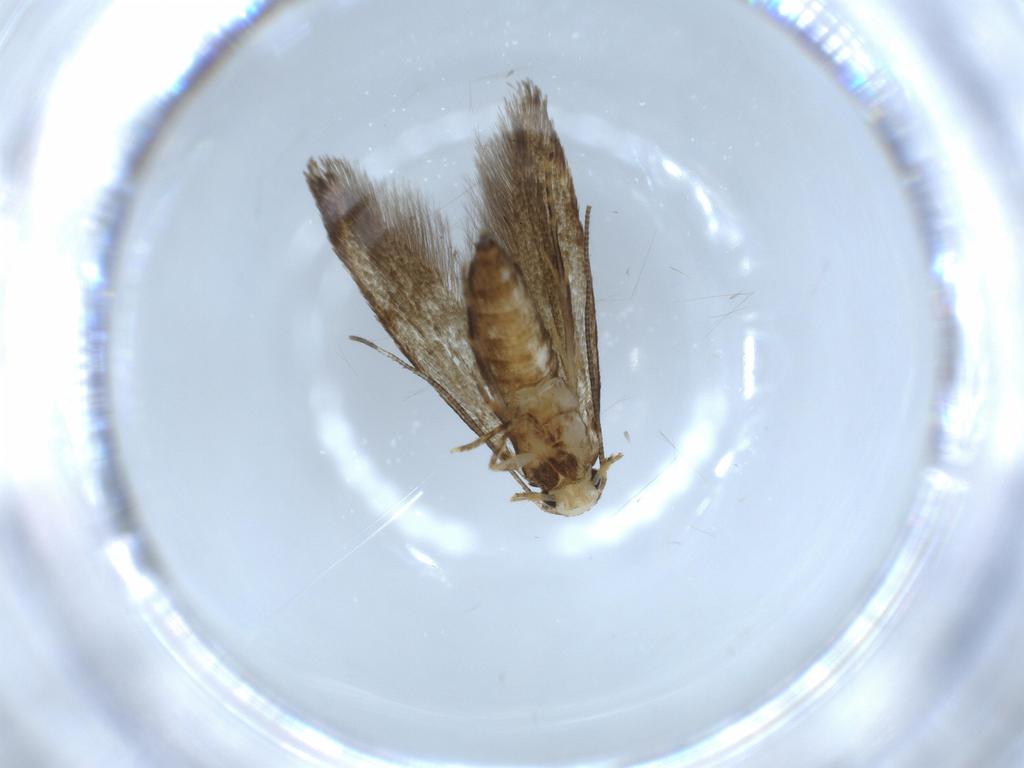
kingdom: Animalia
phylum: Arthropoda
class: Insecta
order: Lepidoptera
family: Tineidae
